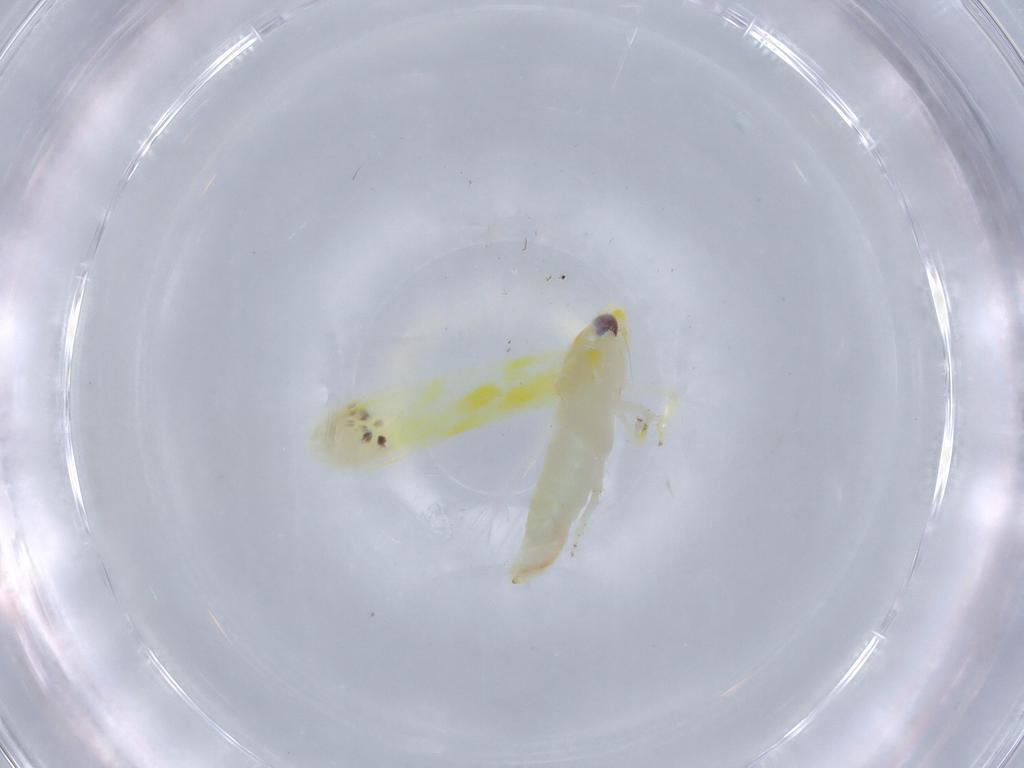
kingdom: Animalia
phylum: Arthropoda
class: Insecta
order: Hemiptera
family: Cicadellidae
